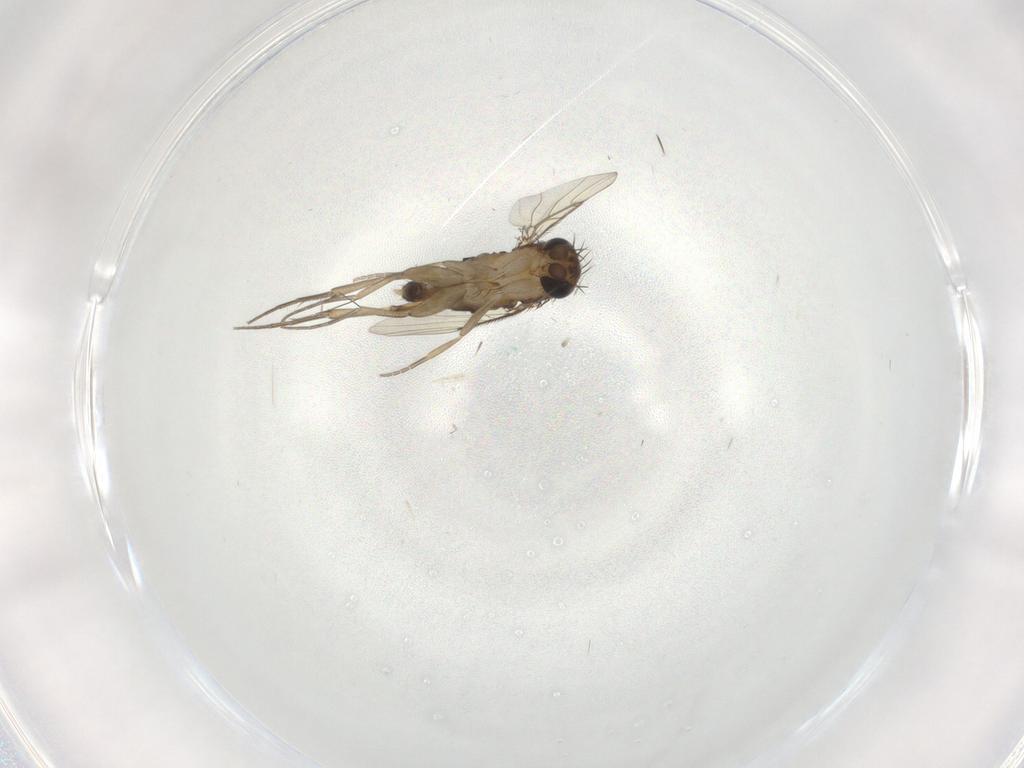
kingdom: Animalia
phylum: Arthropoda
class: Insecta
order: Diptera
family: Phoridae
